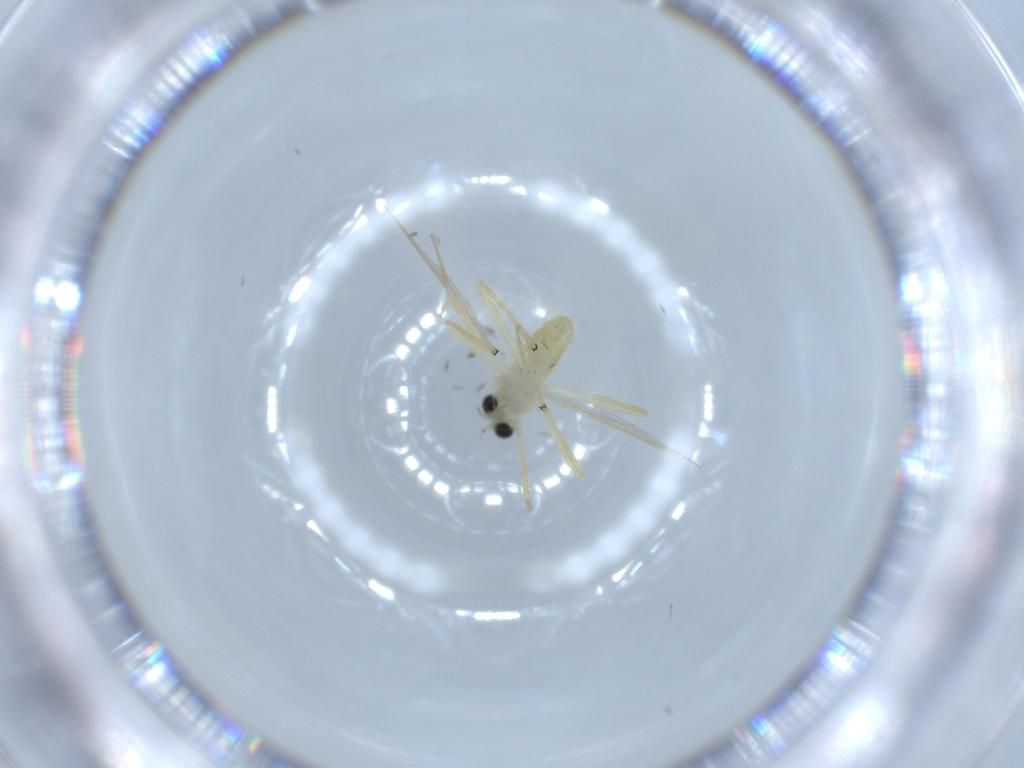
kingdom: Animalia
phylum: Arthropoda
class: Insecta
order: Diptera
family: Chironomidae
